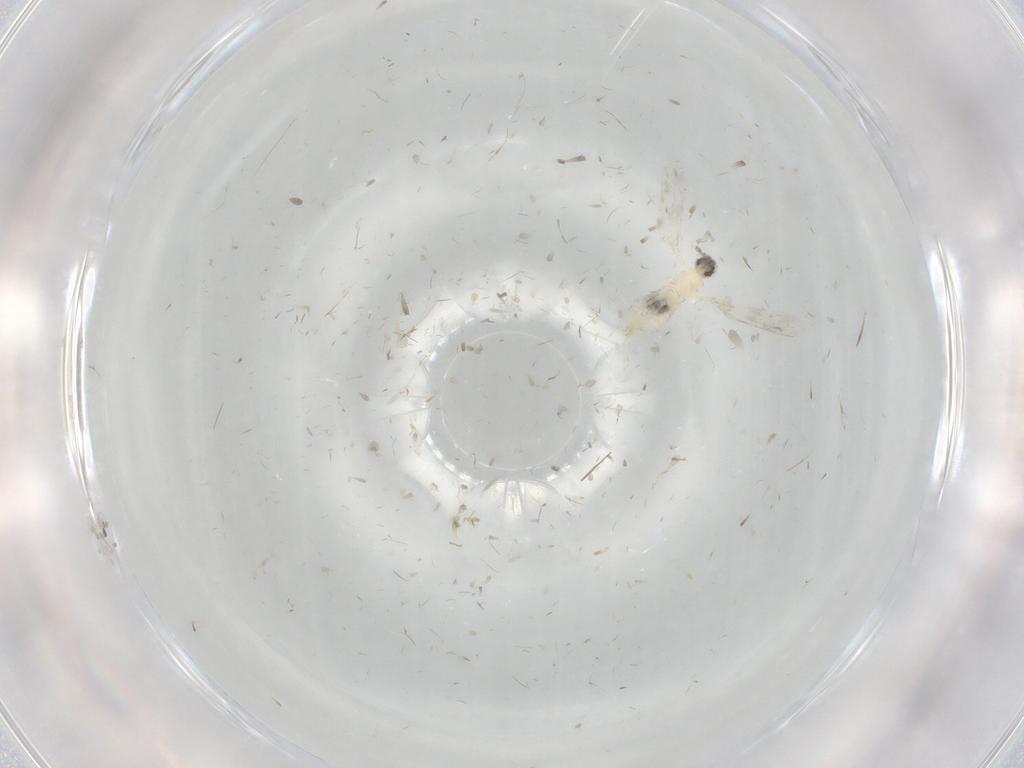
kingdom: Animalia
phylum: Arthropoda
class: Insecta
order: Diptera
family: Cecidomyiidae
